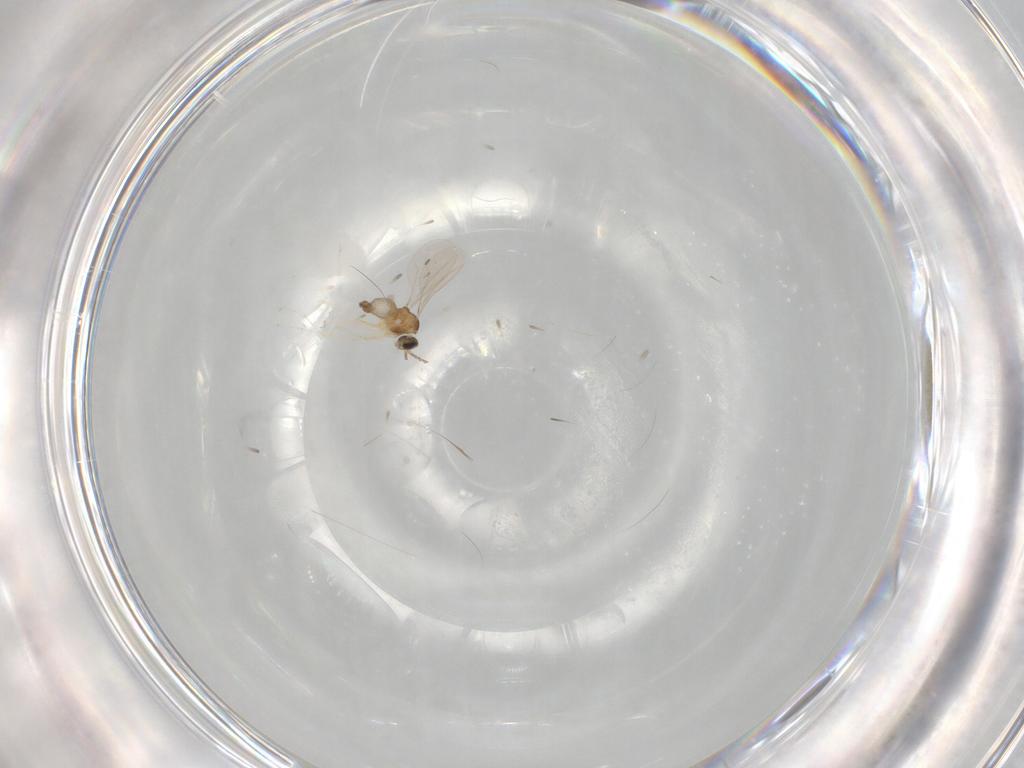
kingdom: Animalia
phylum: Arthropoda
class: Insecta
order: Diptera
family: Cecidomyiidae
